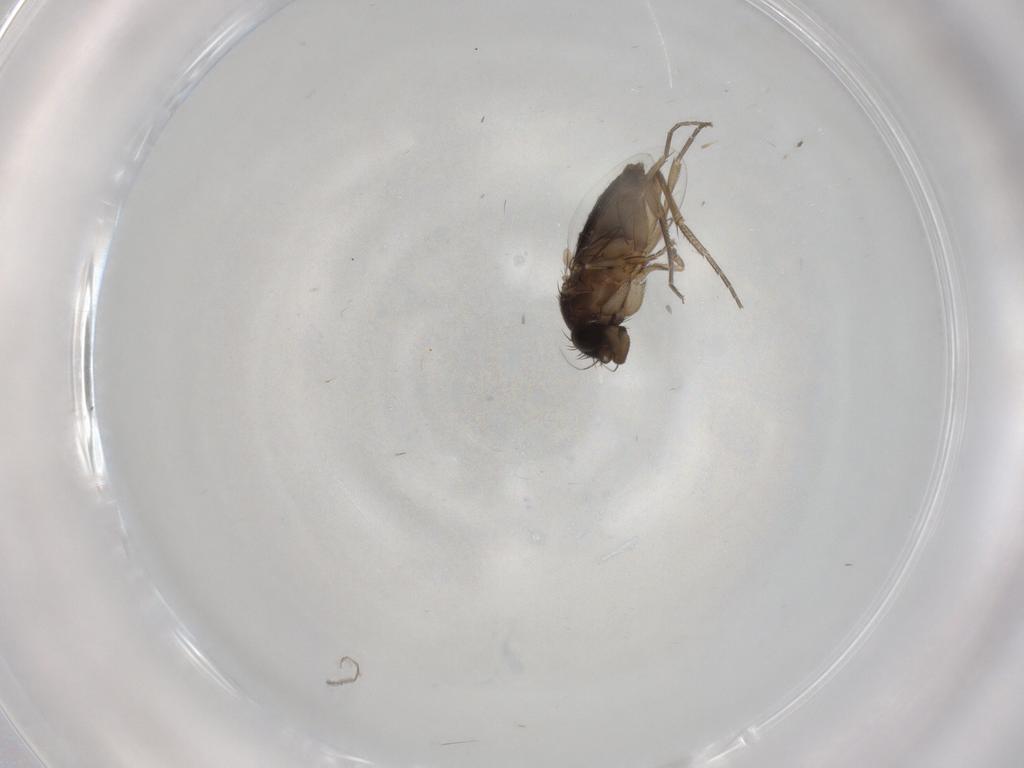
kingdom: Animalia
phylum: Arthropoda
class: Insecta
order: Diptera
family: Phoridae
